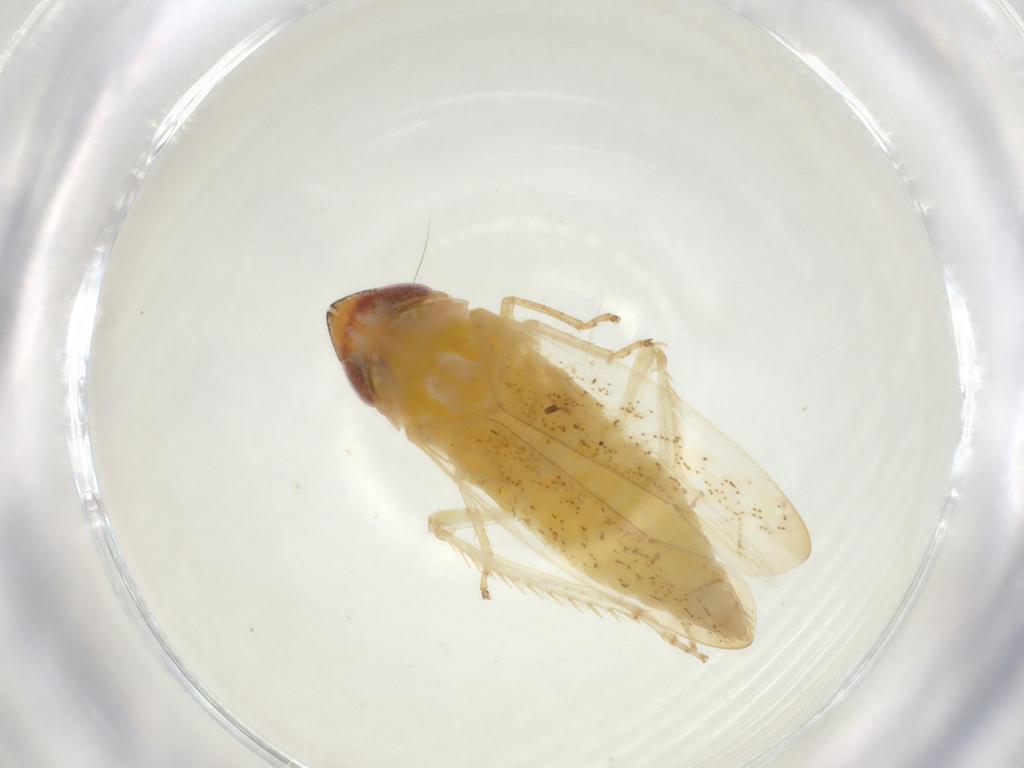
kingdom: Animalia
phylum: Arthropoda
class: Insecta
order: Hemiptera
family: Cicadellidae
